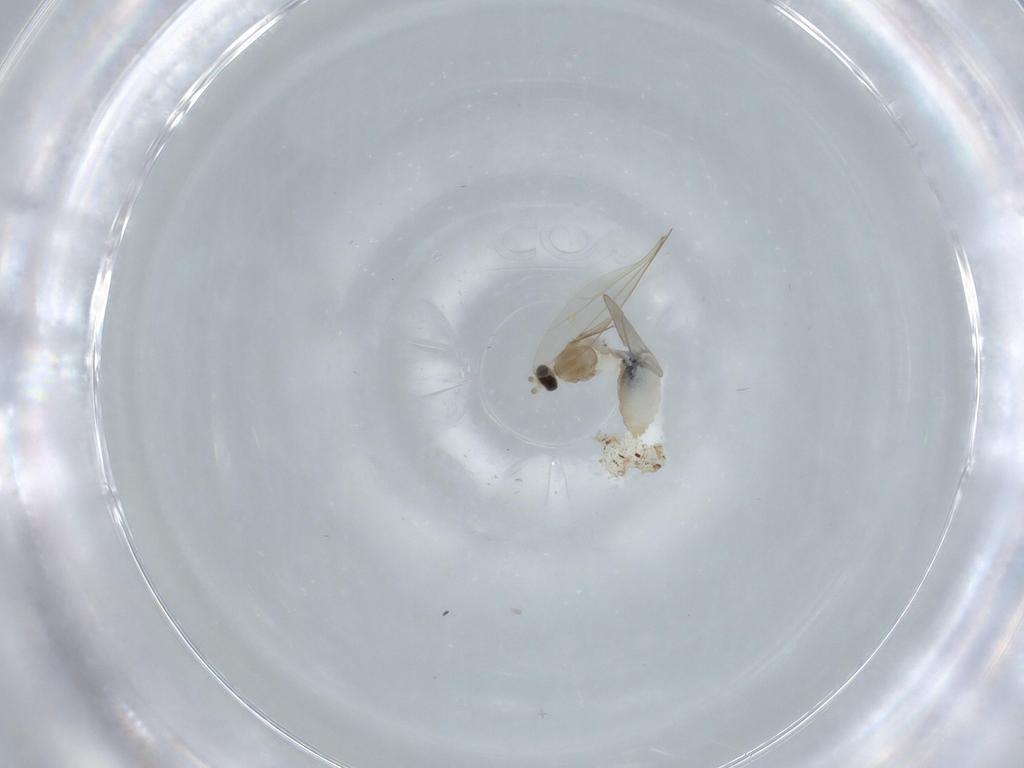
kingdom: Animalia
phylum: Arthropoda
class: Insecta
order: Diptera
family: Cecidomyiidae
